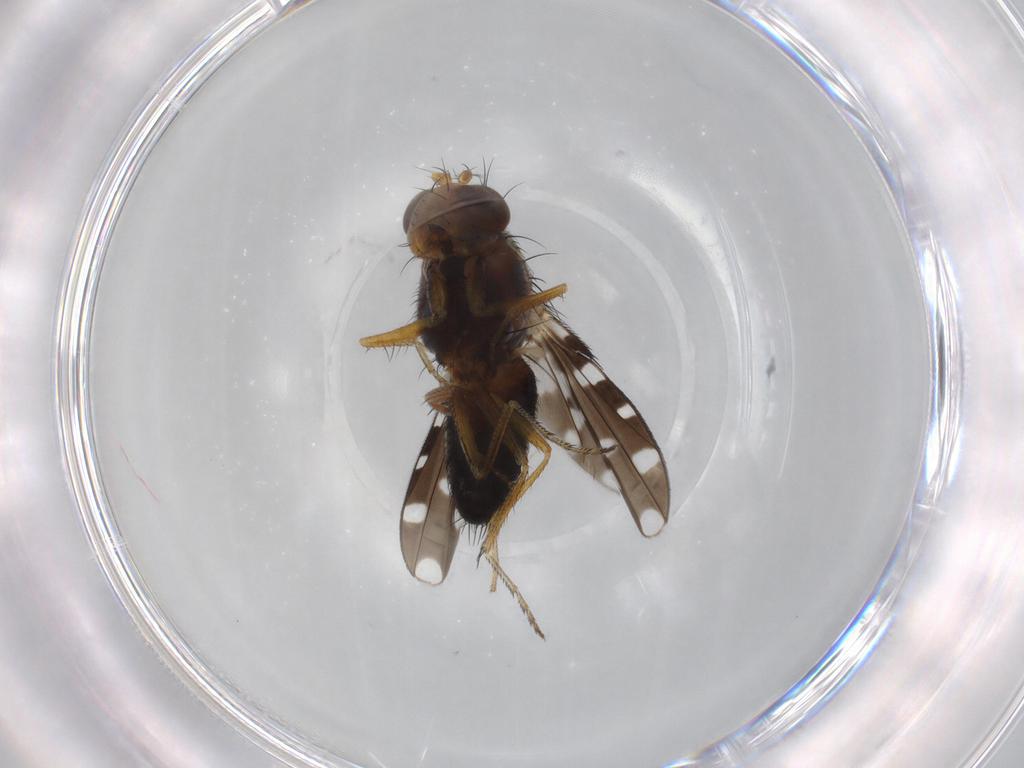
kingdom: Animalia
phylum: Arthropoda
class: Insecta
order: Diptera
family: Ephydridae
